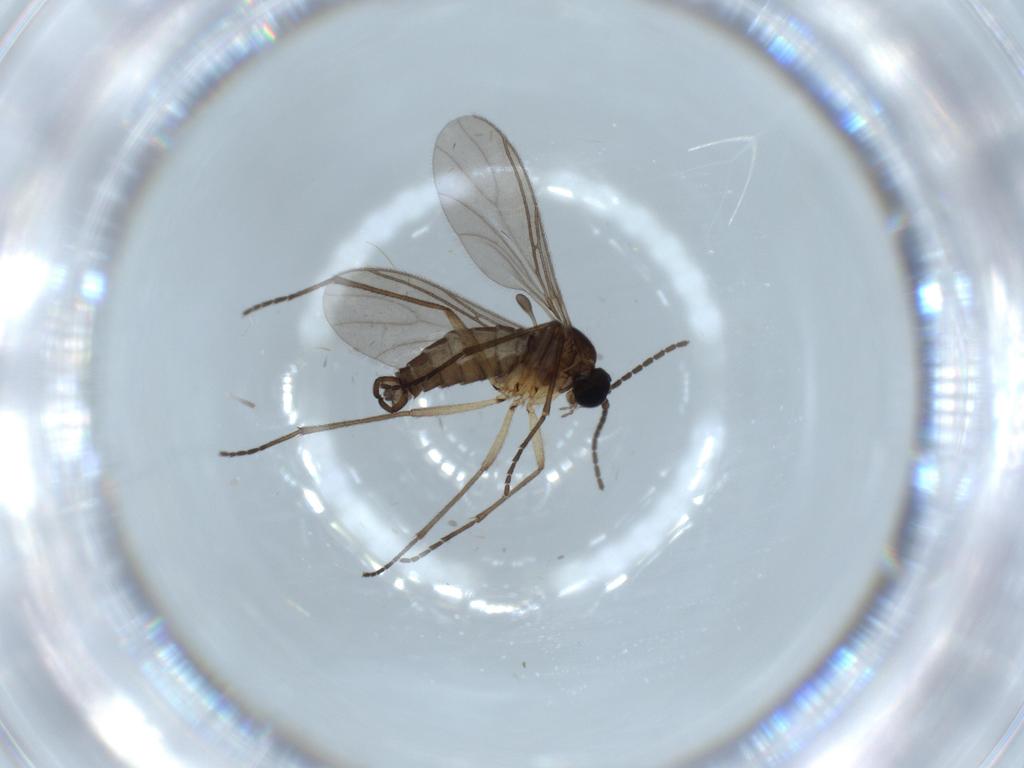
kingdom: Animalia
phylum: Arthropoda
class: Insecta
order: Diptera
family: Sciaridae
